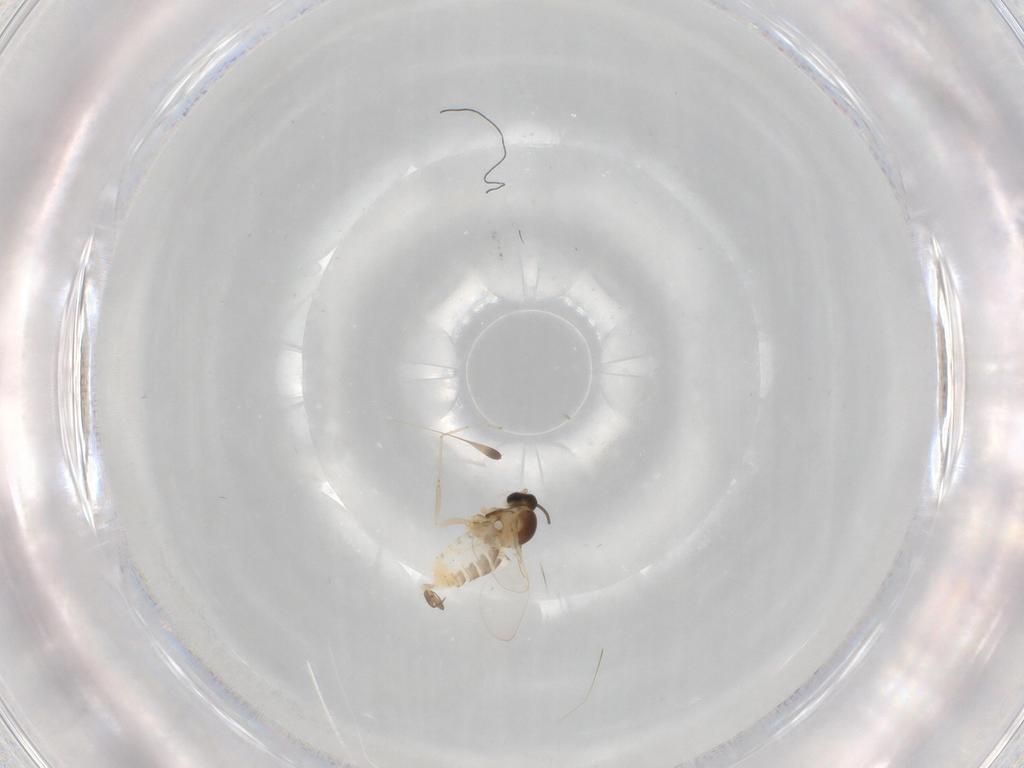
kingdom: Animalia
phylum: Arthropoda
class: Insecta
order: Diptera
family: Cecidomyiidae
